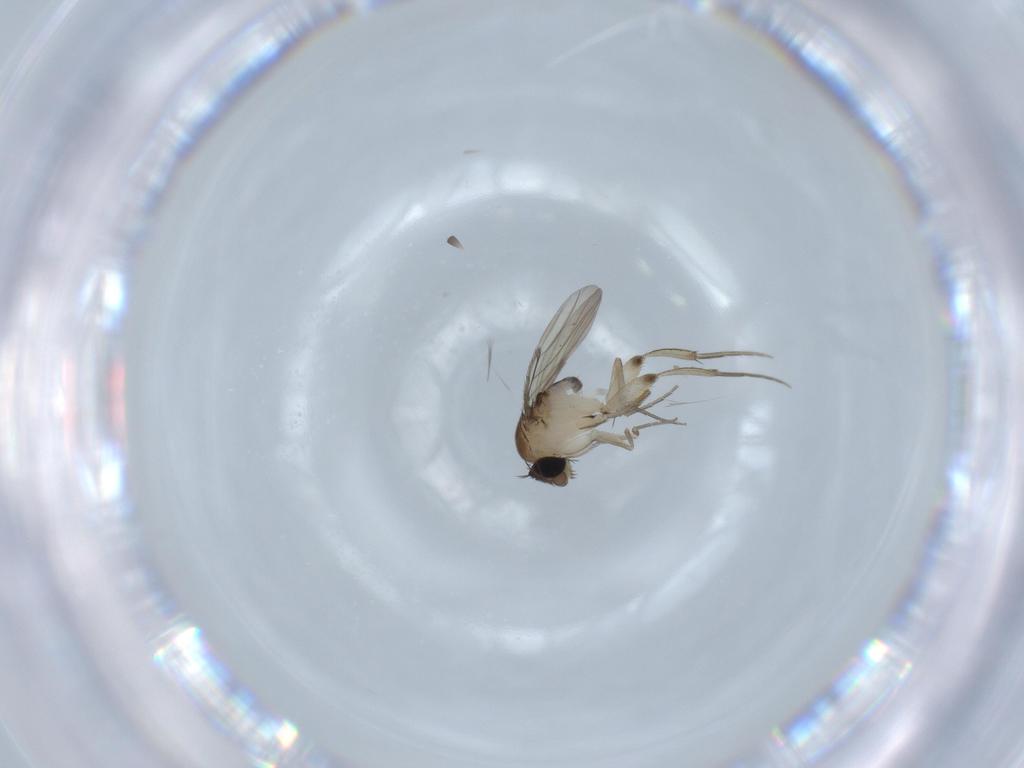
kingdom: Animalia
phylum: Arthropoda
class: Insecta
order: Diptera
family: Phoridae
